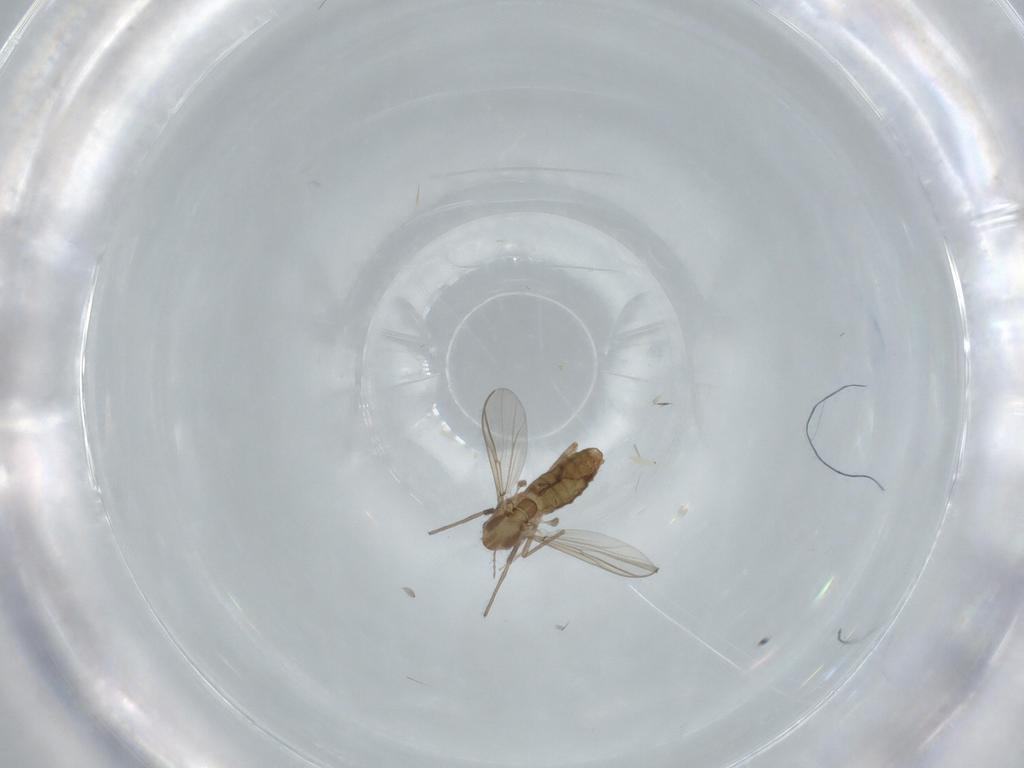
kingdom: Animalia
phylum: Arthropoda
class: Insecta
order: Diptera
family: Chironomidae
